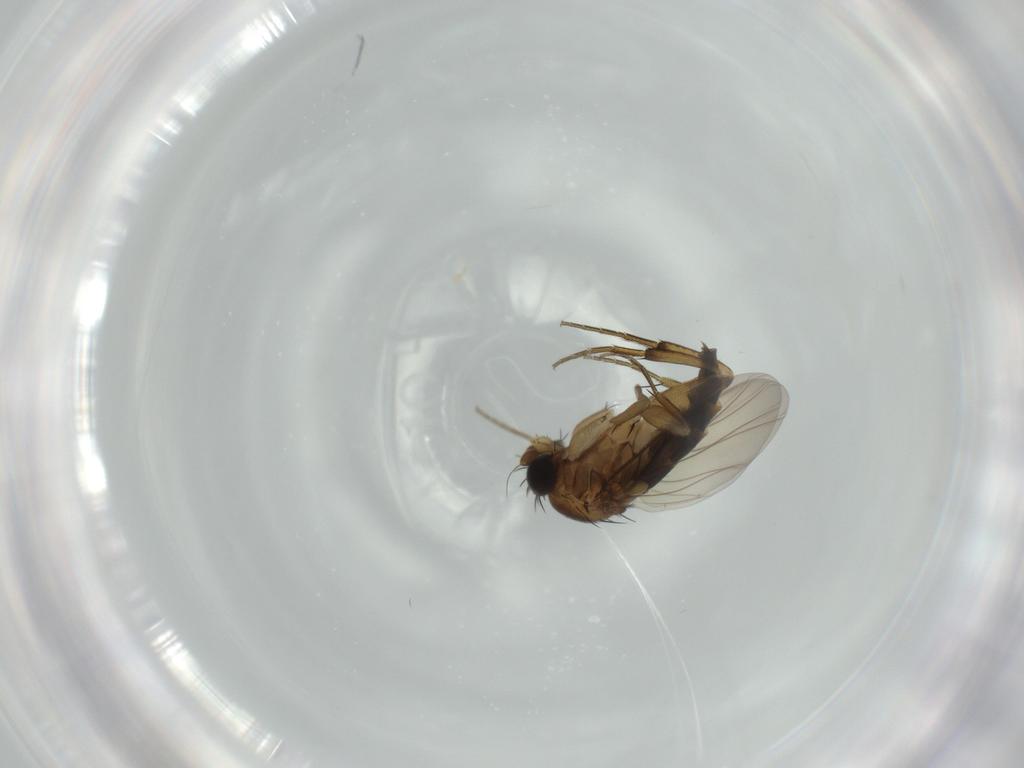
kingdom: Animalia
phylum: Arthropoda
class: Insecta
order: Diptera
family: Phoridae
